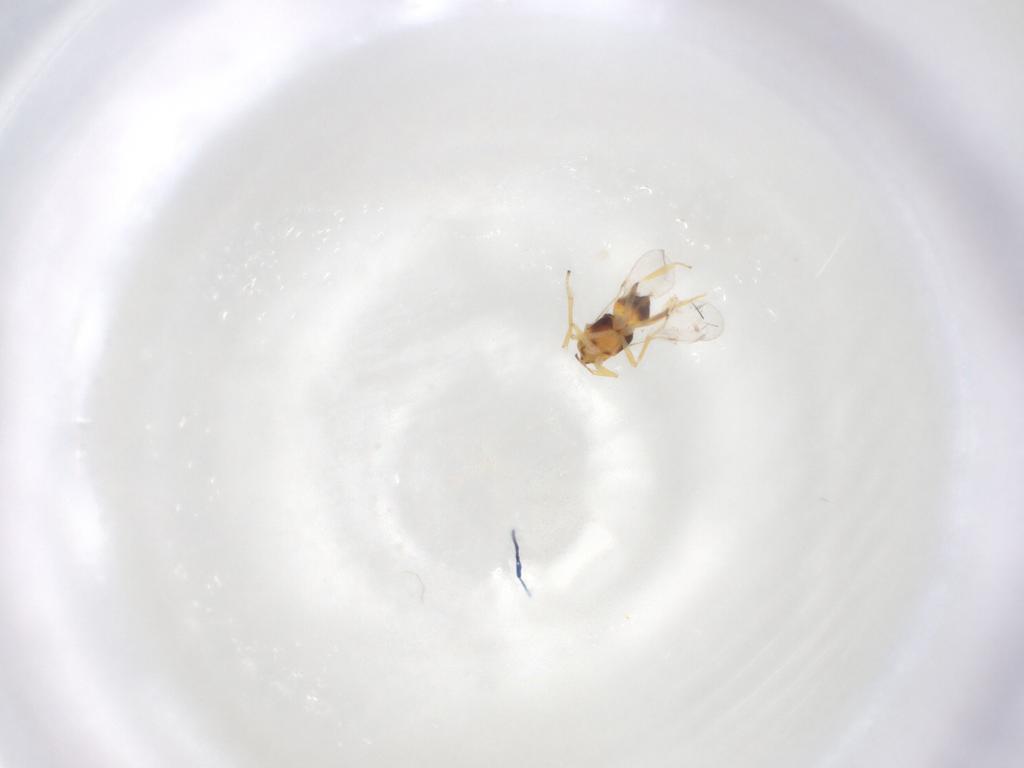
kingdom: Animalia
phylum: Arthropoda
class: Insecta
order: Hymenoptera
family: Encyrtidae
